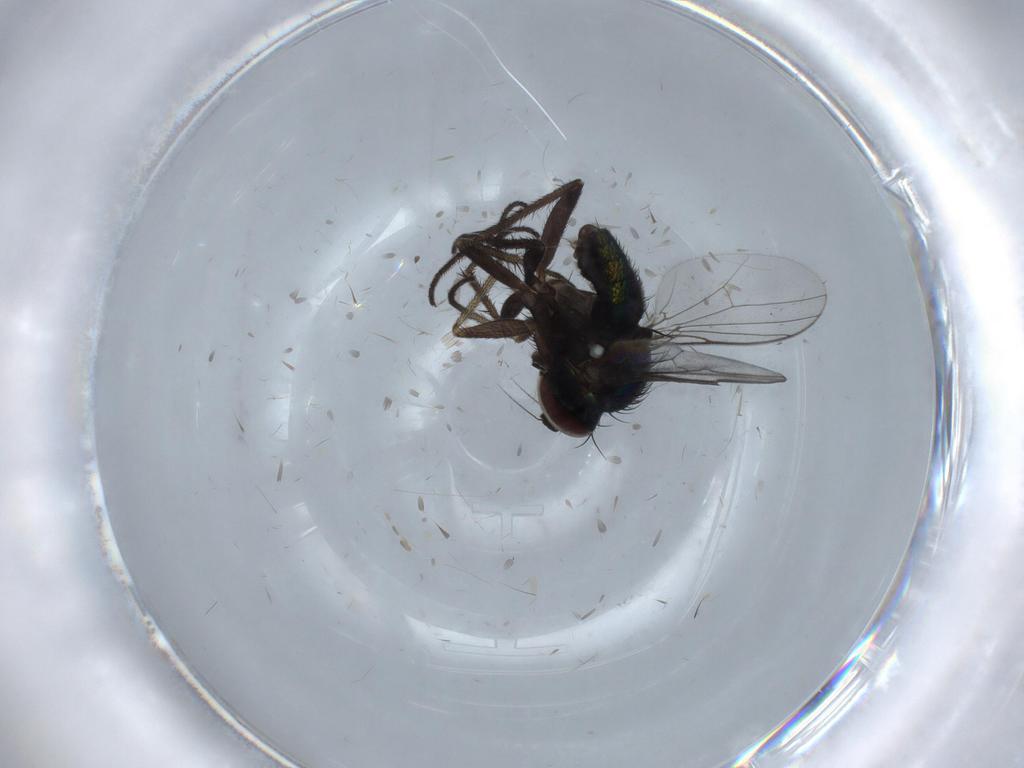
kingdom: Animalia
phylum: Arthropoda
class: Insecta
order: Diptera
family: Dolichopodidae
